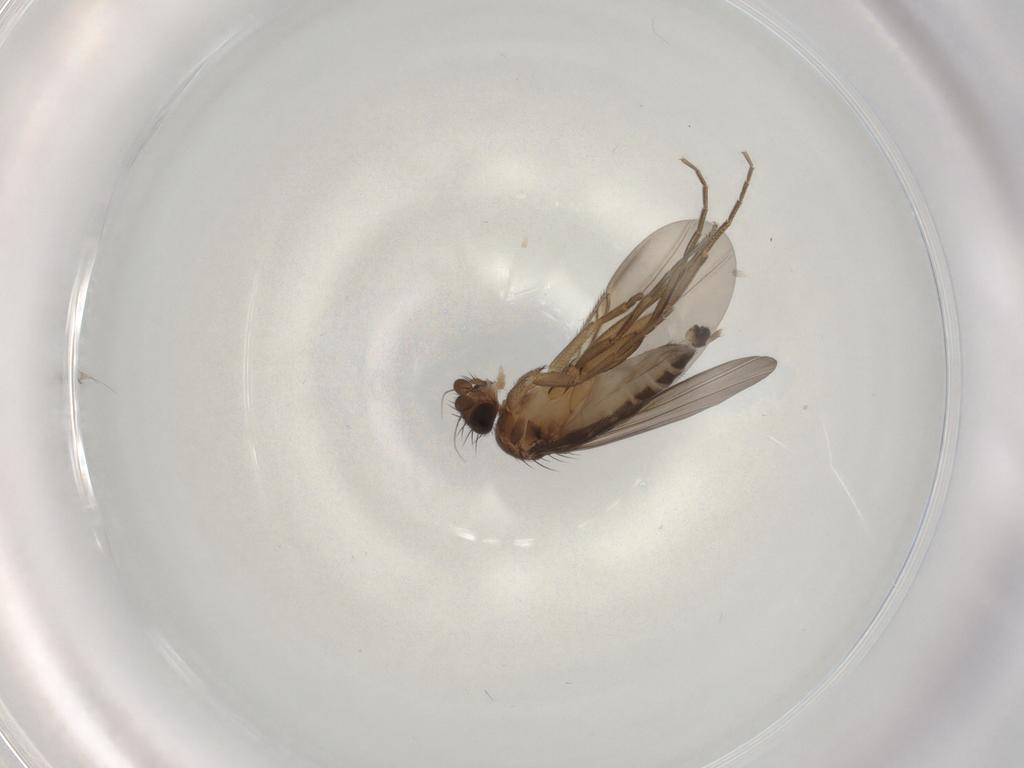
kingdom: Animalia
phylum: Arthropoda
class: Insecta
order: Diptera
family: Phoridae
